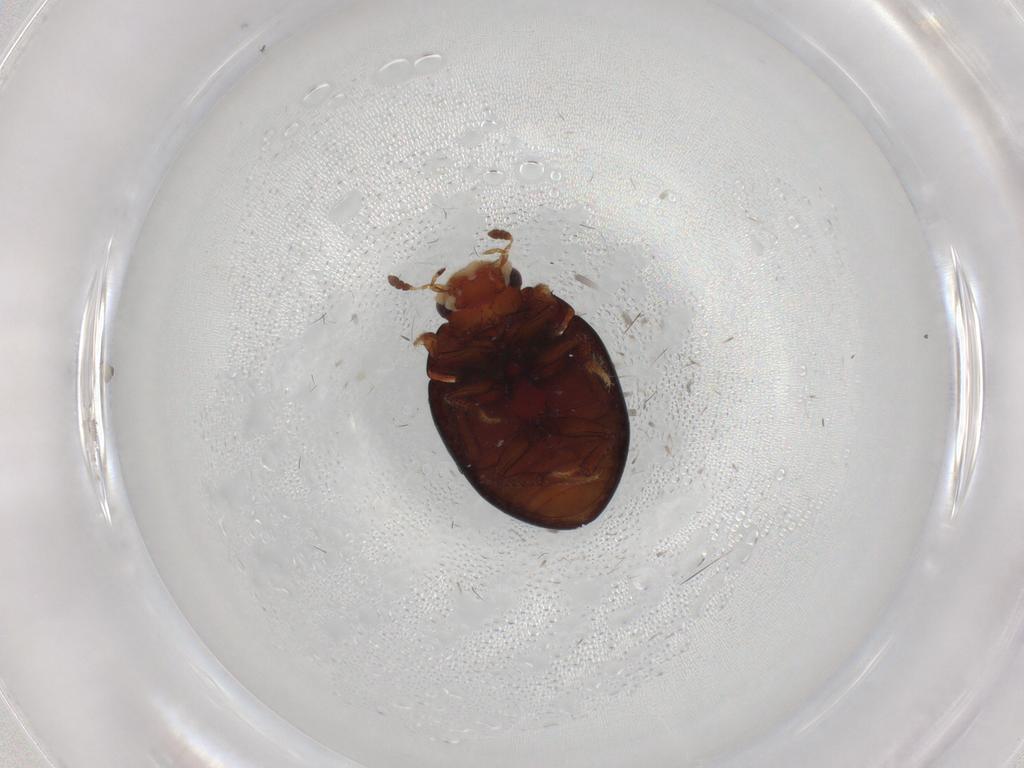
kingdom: Animalia
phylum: Arthropoda
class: Insecta
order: Coleoptera
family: Hydrophilidae
